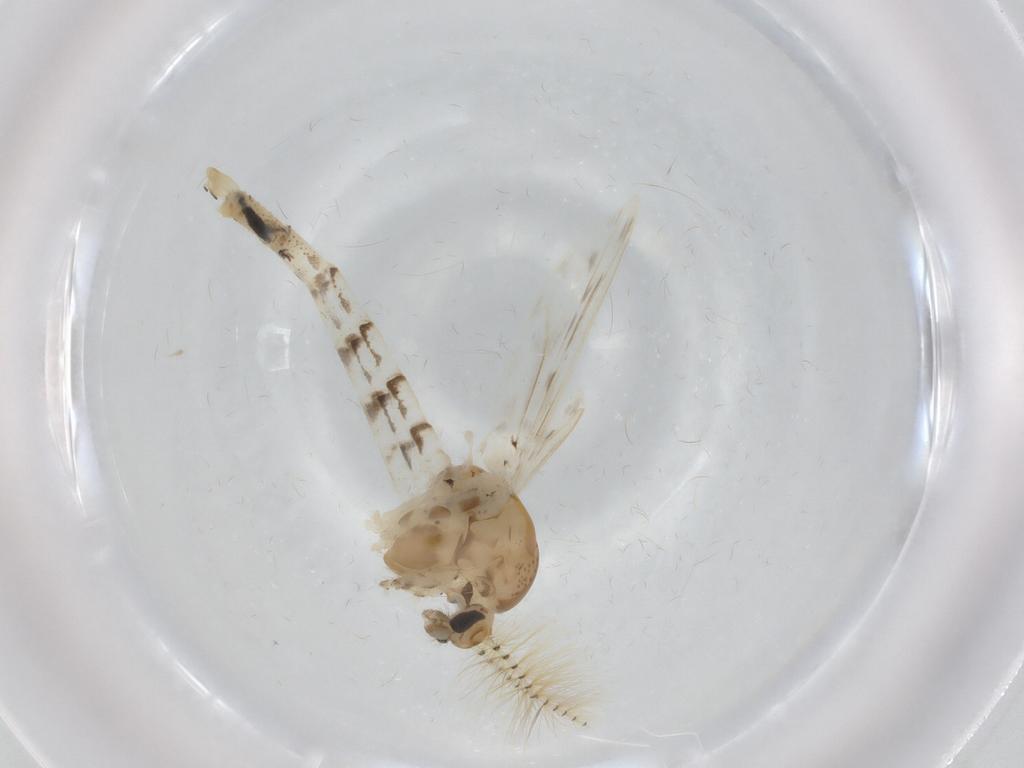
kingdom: Animalia
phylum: Arthropoda
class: Insecta
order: Diptera
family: Chaoboridae
